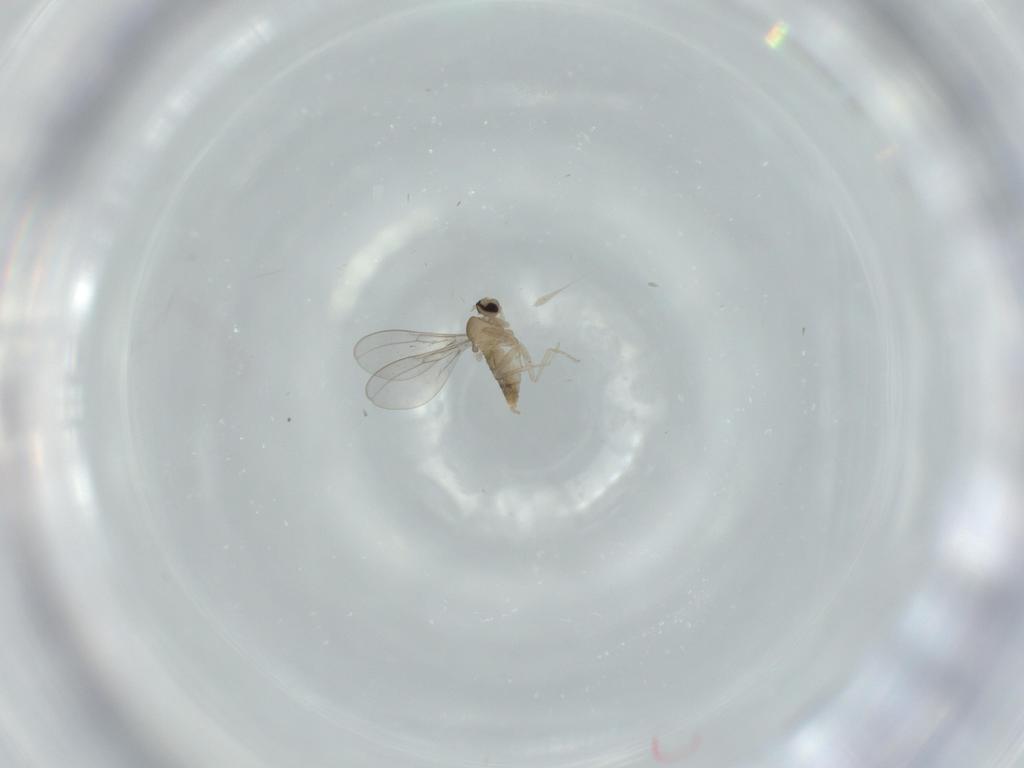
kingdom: Animalia
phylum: Arthropoda
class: Insecta
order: Diptera
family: Cecidomyiidae
